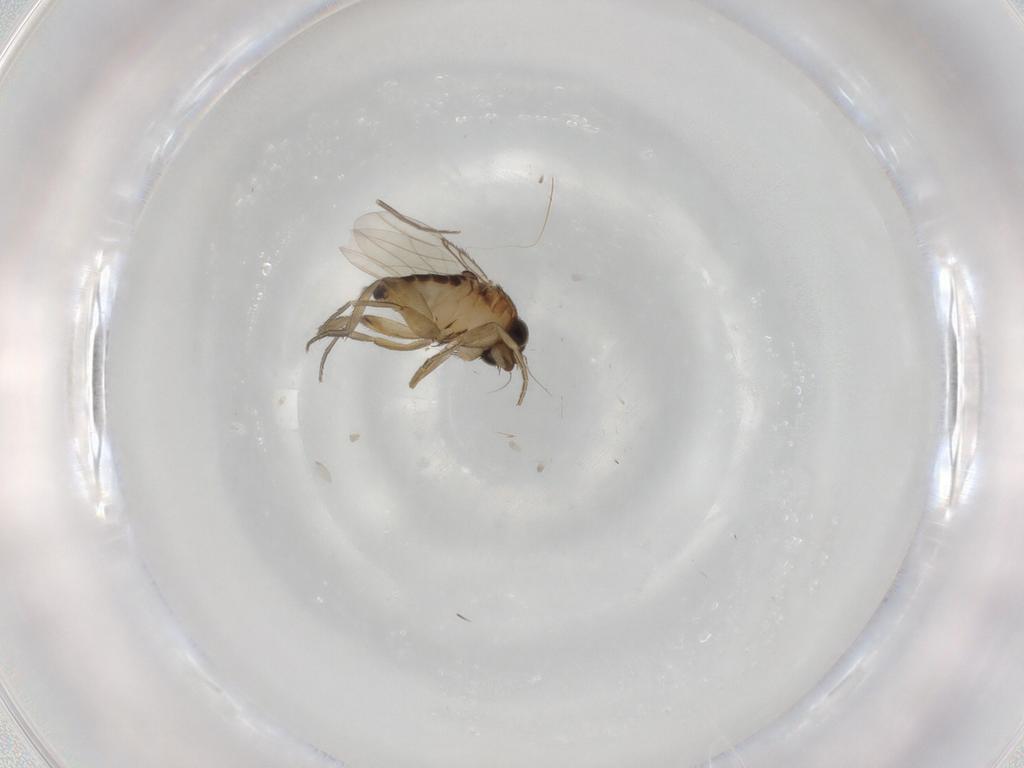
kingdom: Animalia
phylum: Arthropoda
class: Insecta
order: Diptera
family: Phoridae
